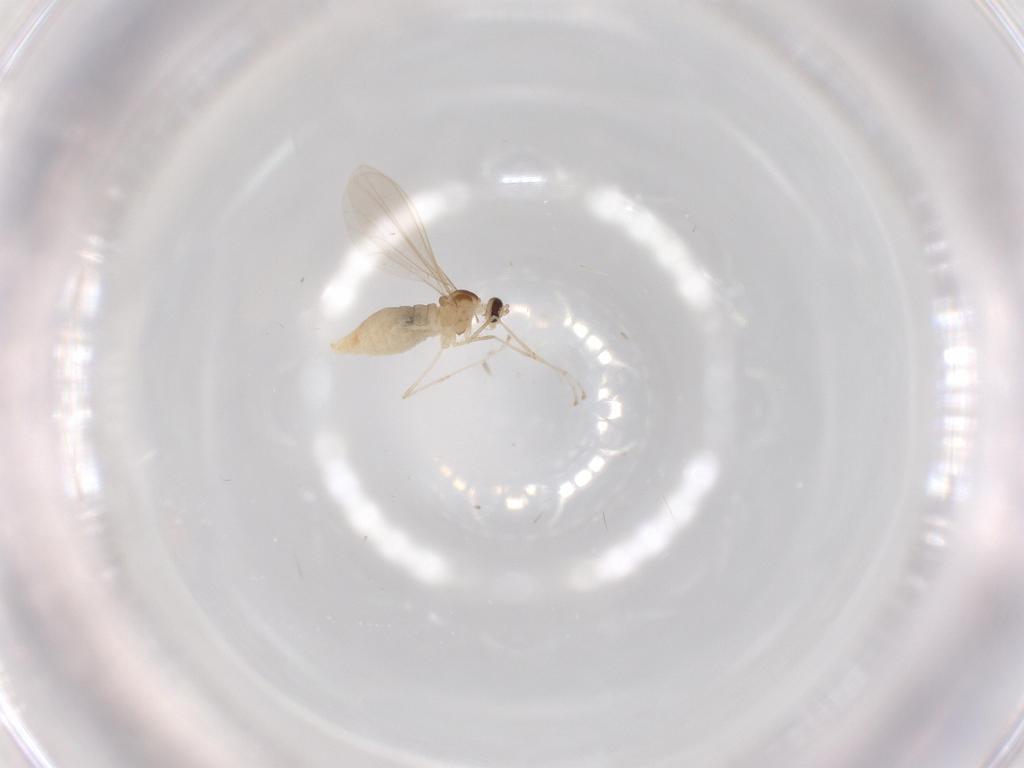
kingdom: Animalia
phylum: Arthropoda
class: Insecta
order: Diptera
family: Cecidomyiidae
